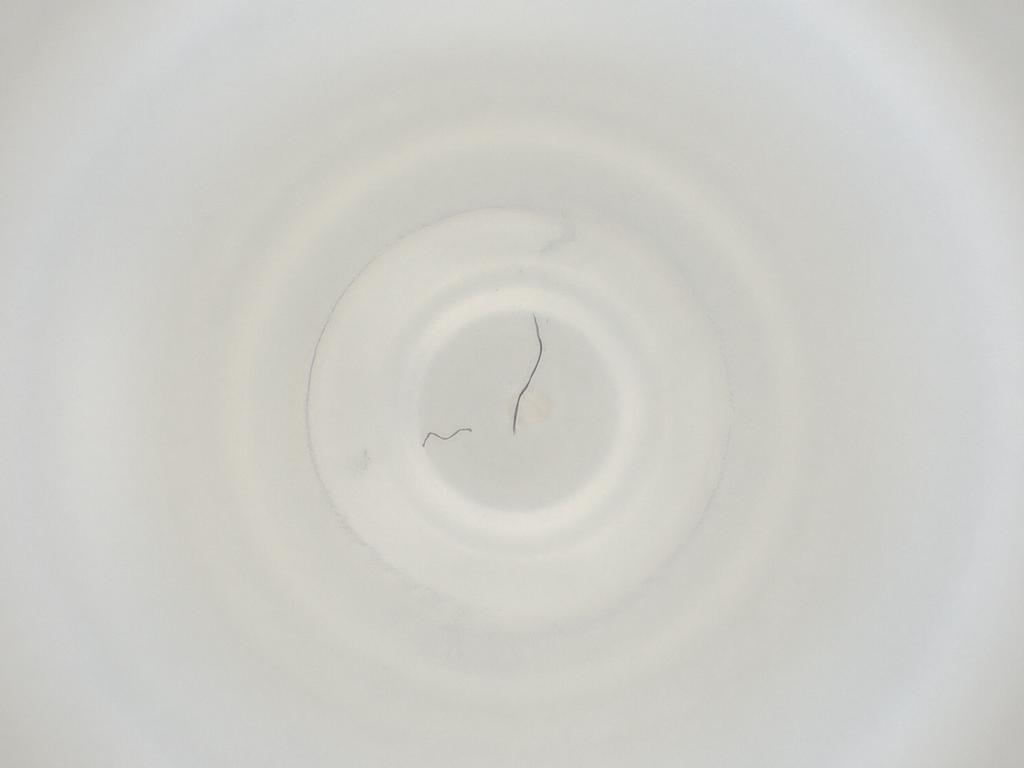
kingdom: Animalia
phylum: Arthropoda
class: Insecta
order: Diptera
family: Cecidomyiidae
